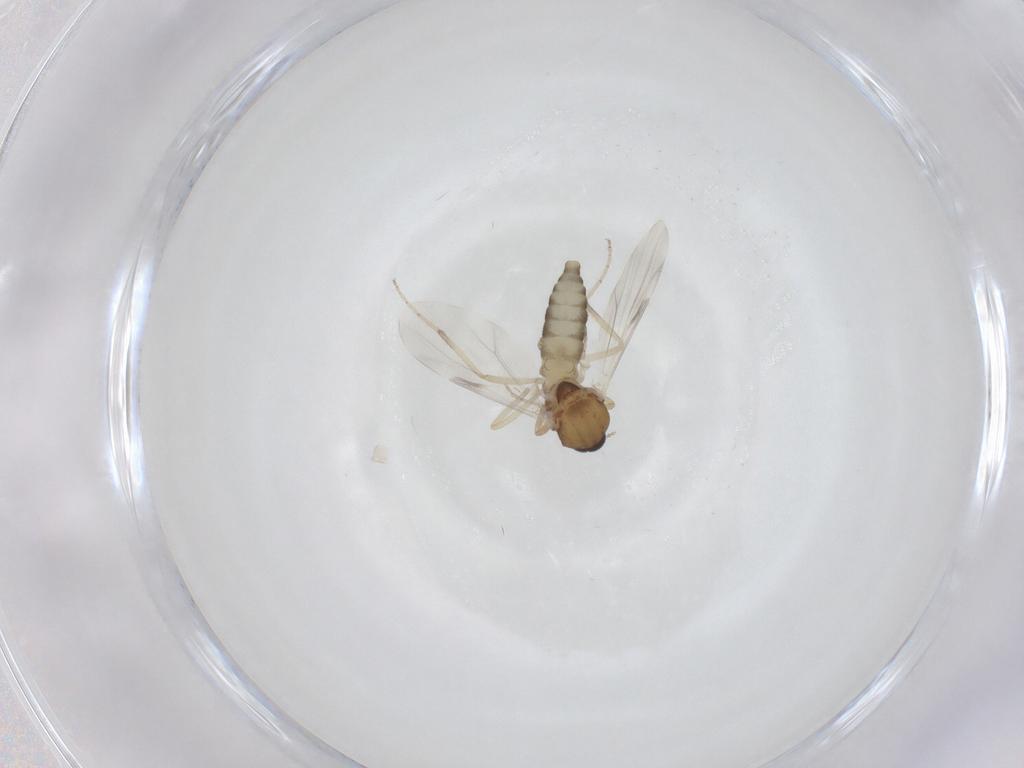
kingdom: Animalia
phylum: Arthropoda
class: Insecta
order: Diptera
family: Ceratopogonidae
